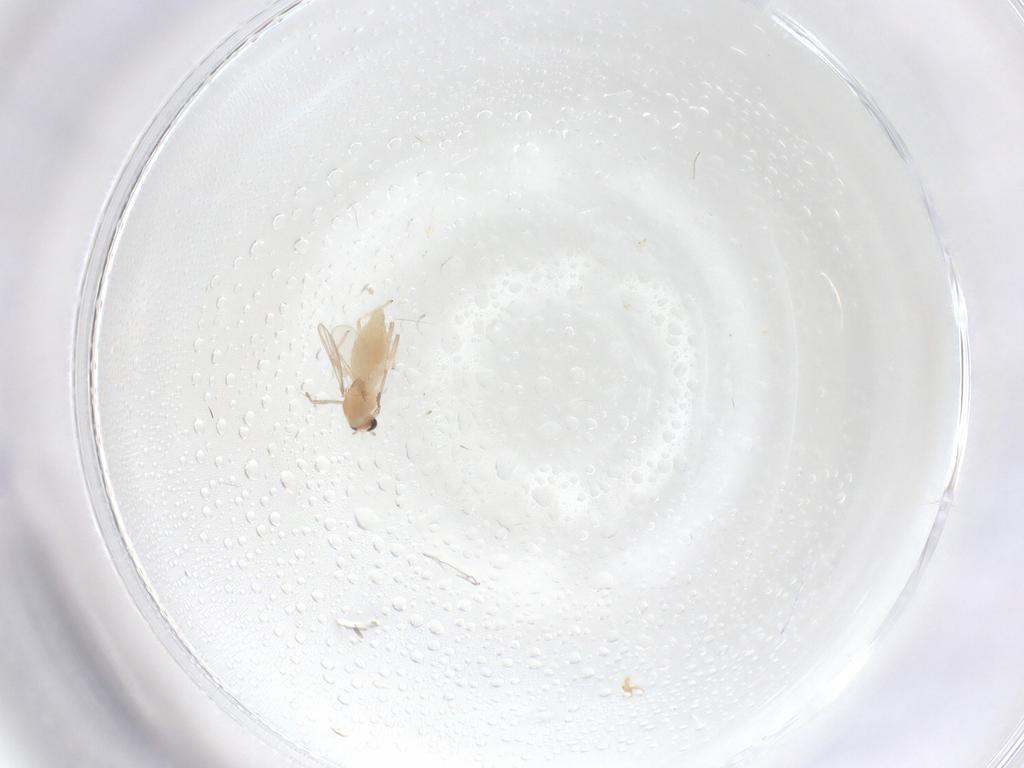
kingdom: Animalia
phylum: Arthropoda
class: Insecta
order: Diptera
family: Chironomidae
